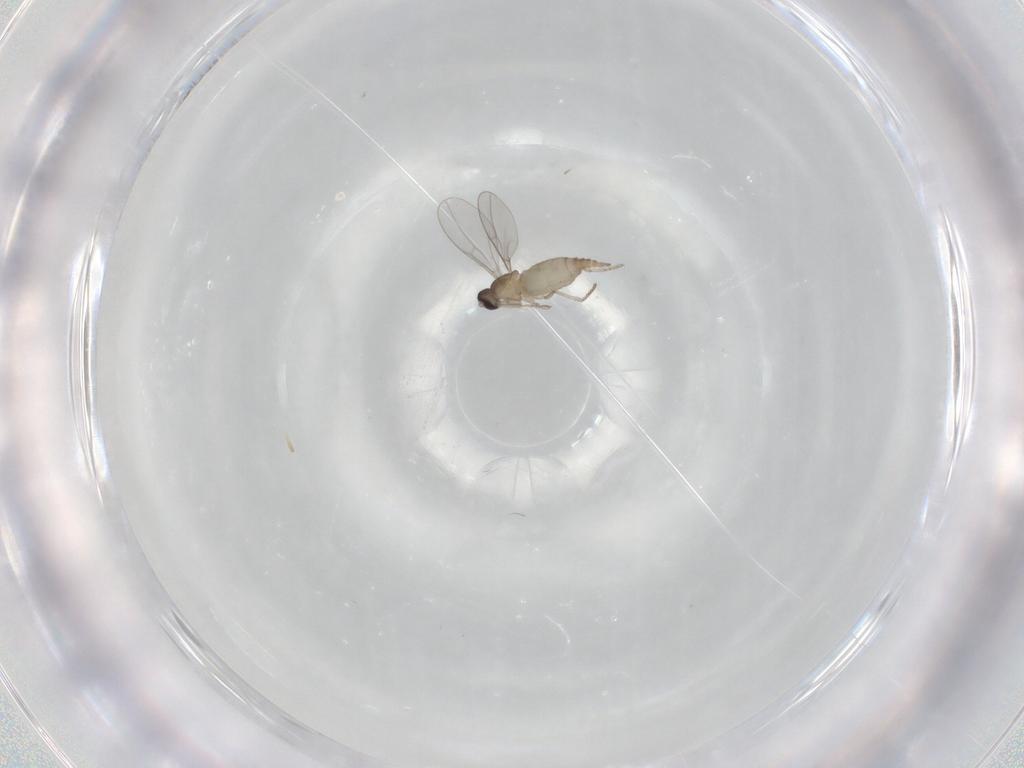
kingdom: Animalia
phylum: Arthropoda
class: Insecta
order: Diptera
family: Cecidomyiidae
